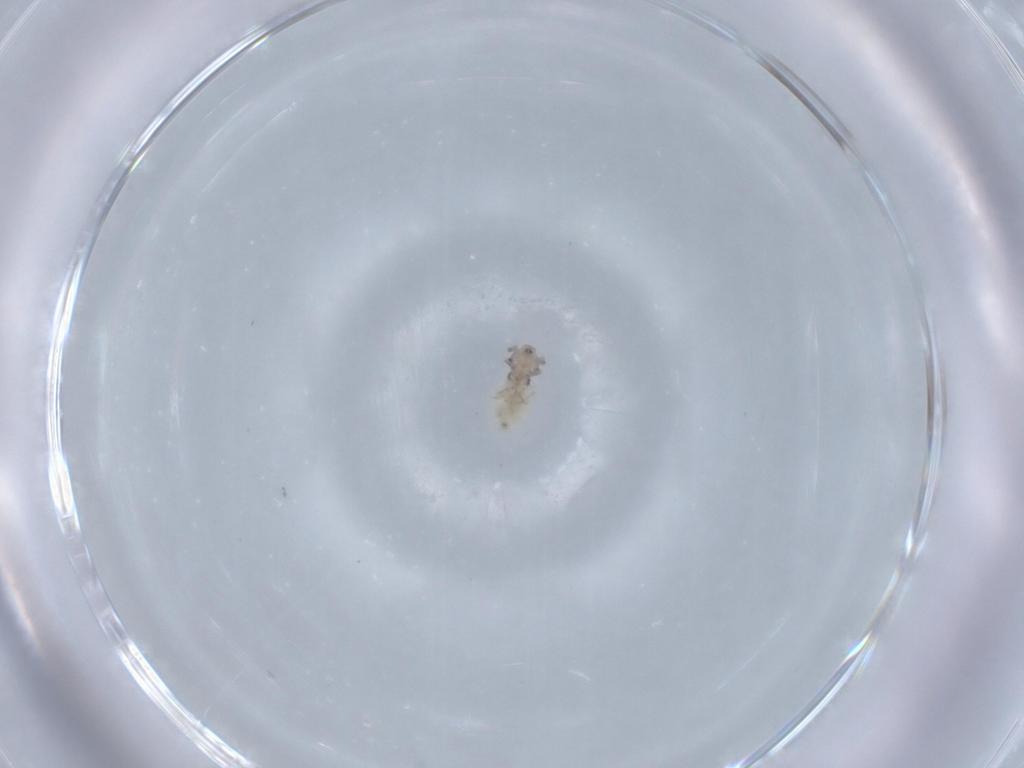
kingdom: Animalia
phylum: Arthropoda
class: Insecta
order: Psocodea
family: Lepidopsocidae
